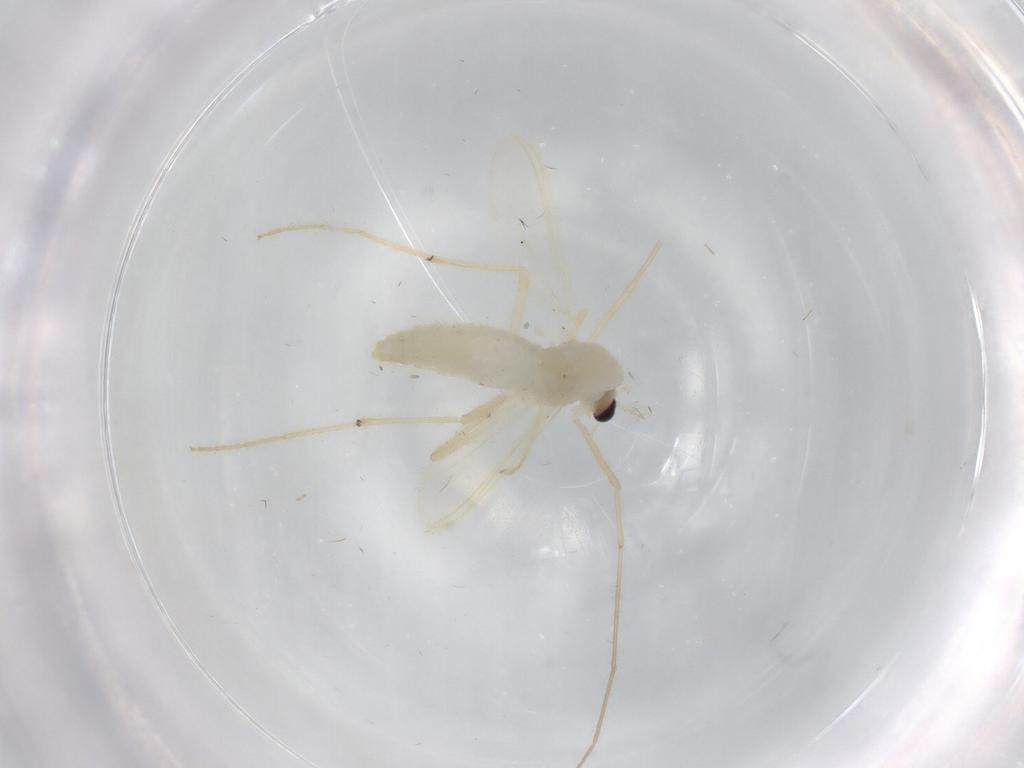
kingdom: Animalia
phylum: Arthropoda
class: Insecta
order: Diptera
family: Chironomidae
